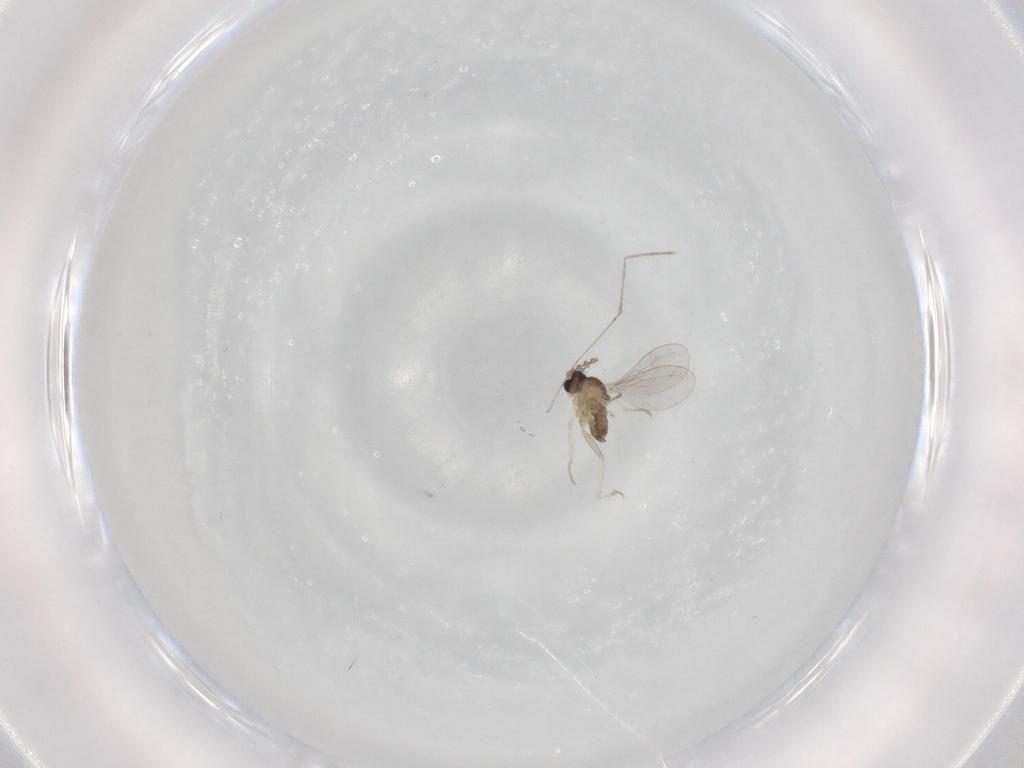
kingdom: Animalia
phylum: Arthropoda
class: Insecta
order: Diptera
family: Cecidomyiidae
